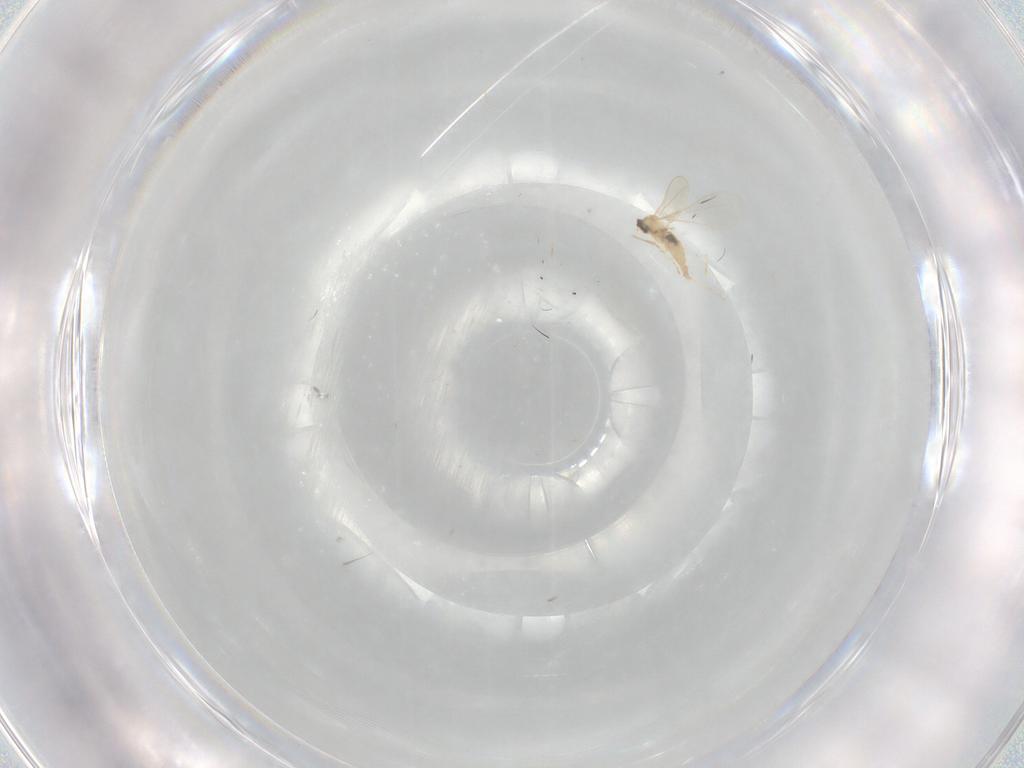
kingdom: Animalia
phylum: Arthropoda
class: Insecta
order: Diptera
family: Cecidomyiidae
